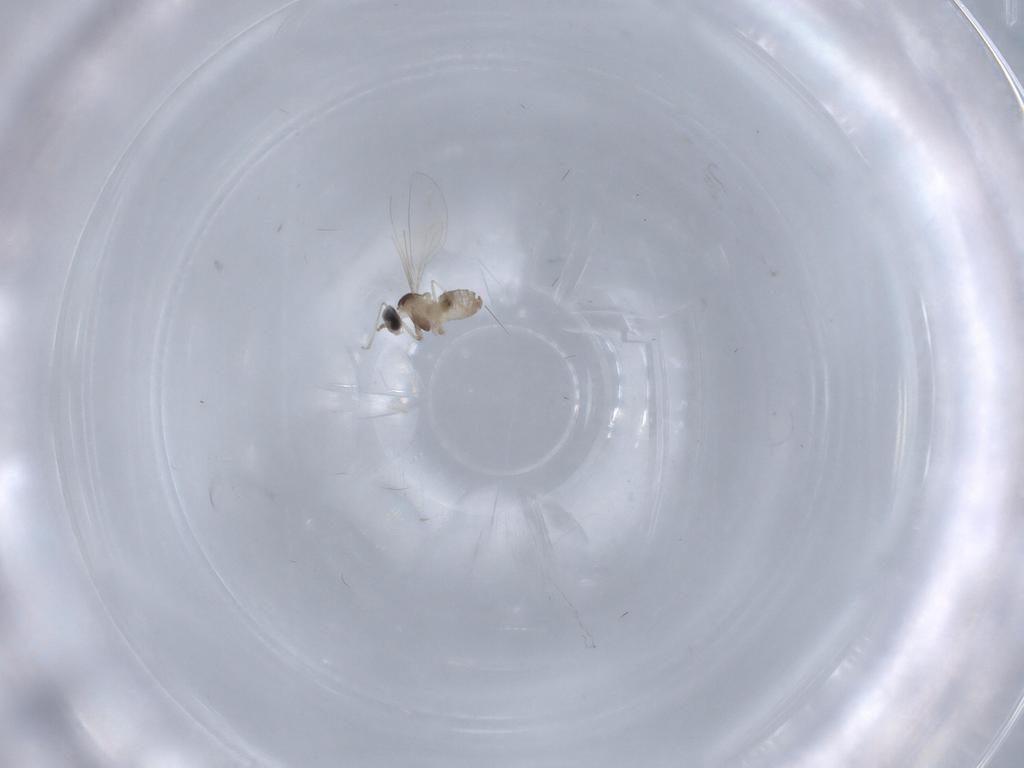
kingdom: Animalia
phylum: Arthropoda
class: Insecta
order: Diptera
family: Cecidomyiidae
